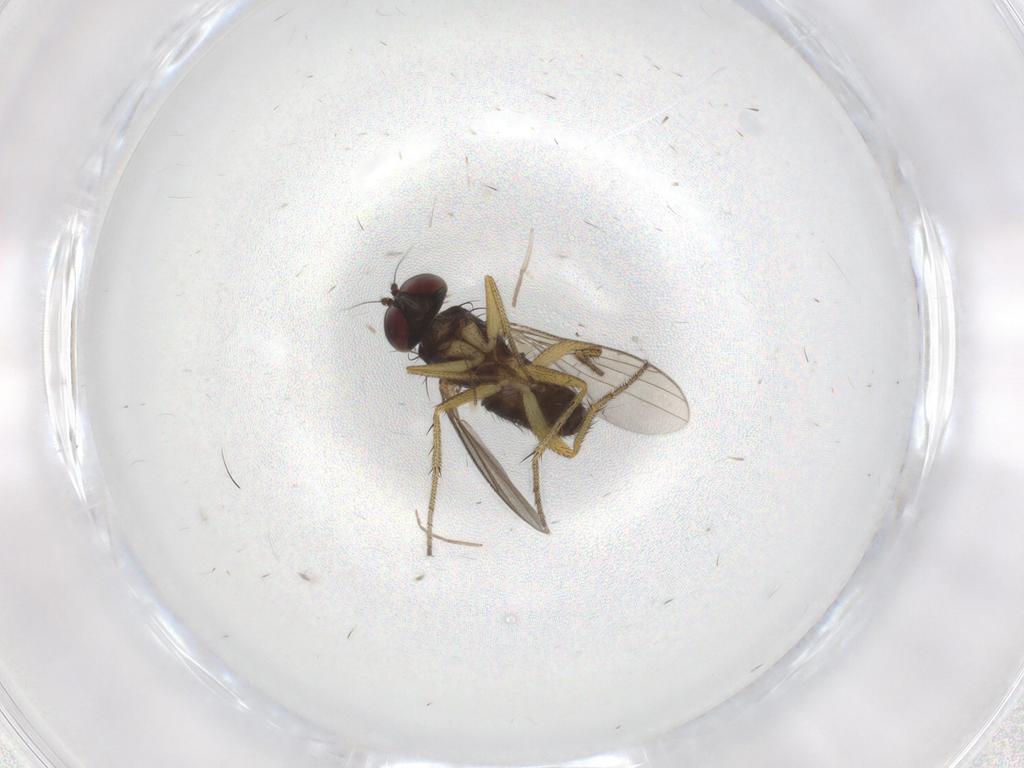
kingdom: Animalia
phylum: Arthropoda
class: Insecta
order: Diptera
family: Dolichopodidae
